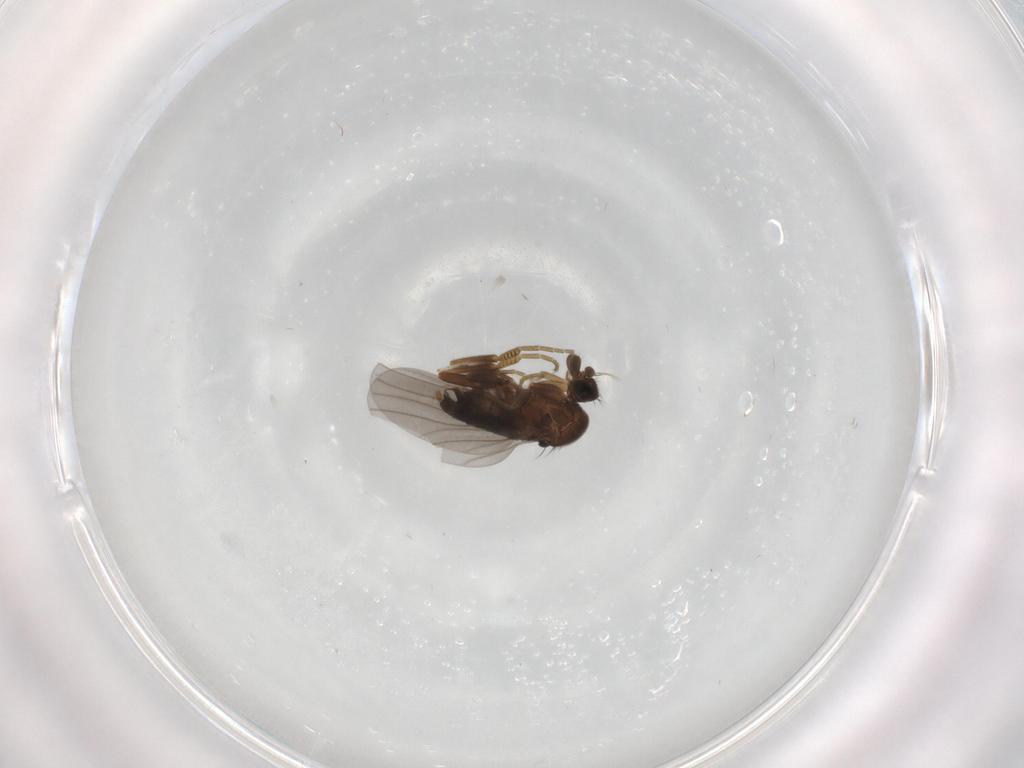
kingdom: Animalia
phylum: Arthropoda
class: Insecta
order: Diptera
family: Phoridae
